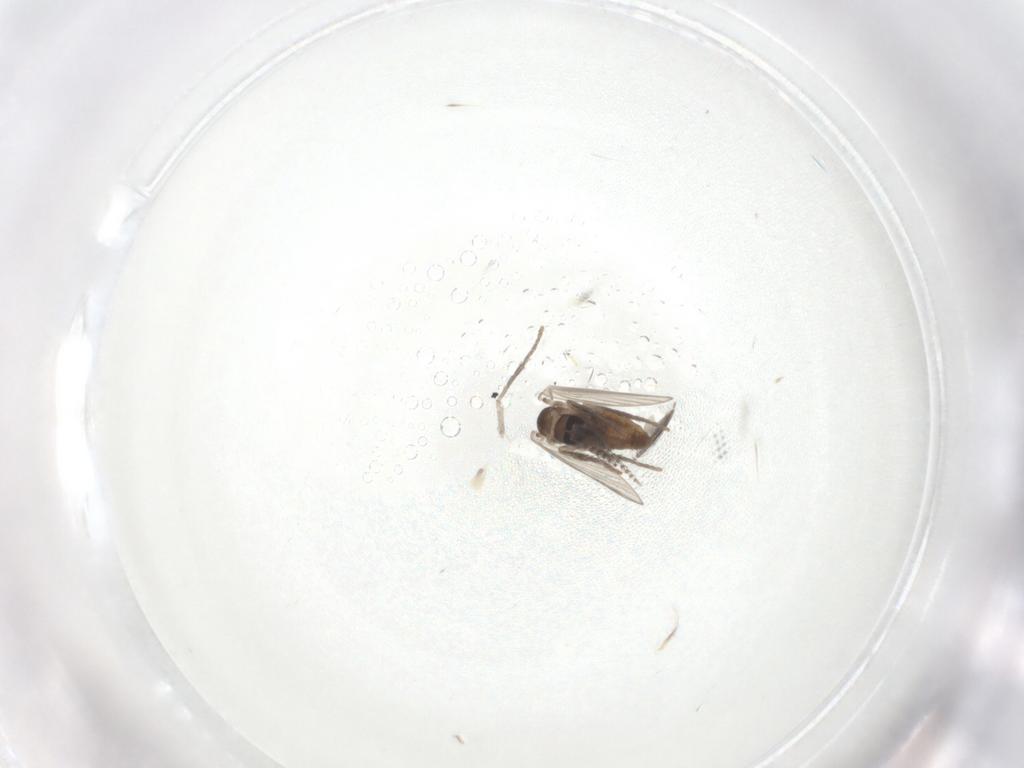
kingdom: Animalia
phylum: Arthropoda
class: Insecta
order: Diptera
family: Psychodidae
